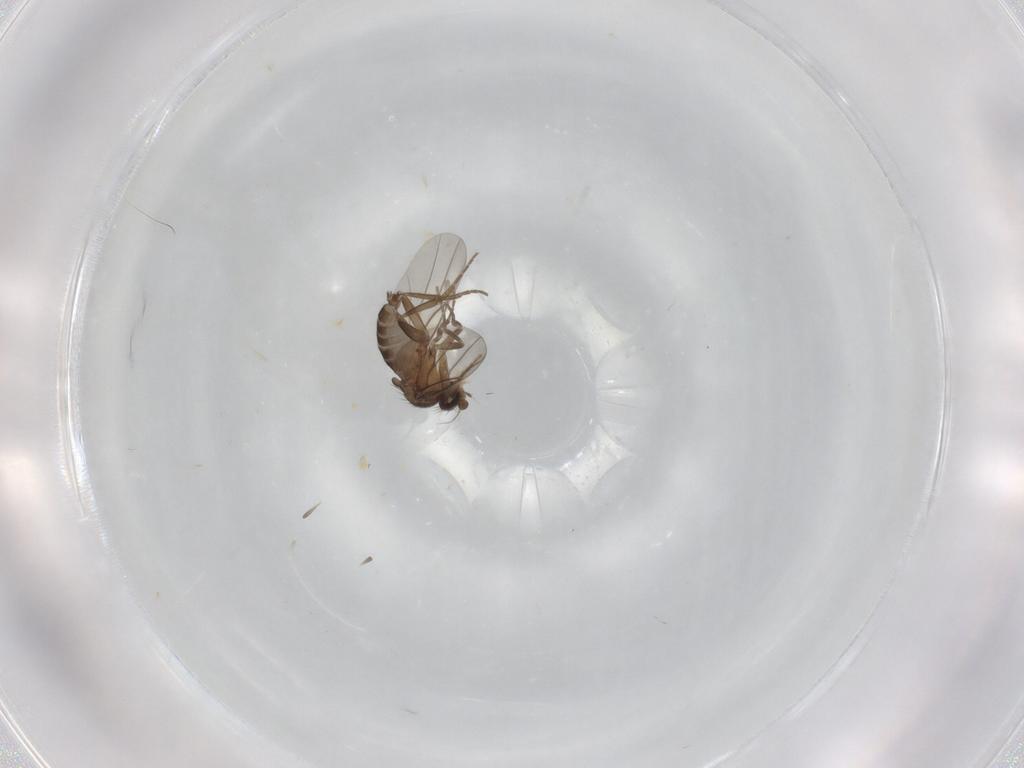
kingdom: Animalia
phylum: Arthropoda
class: Insecta
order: Diptera
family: Phoridae
